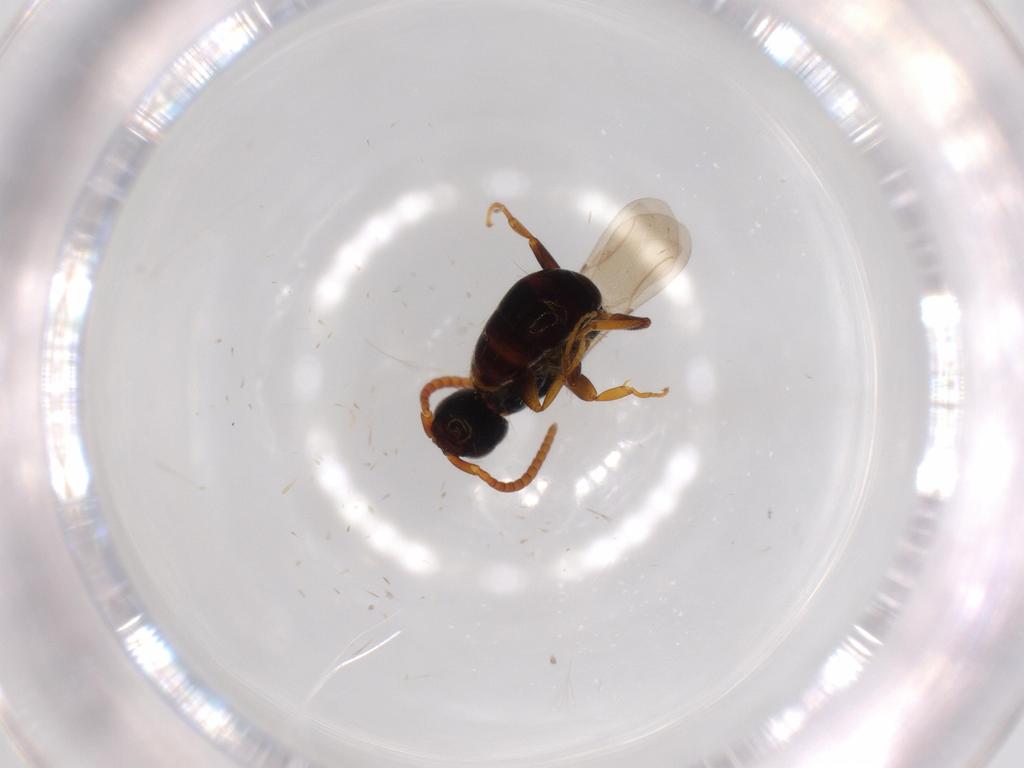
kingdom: Animalia
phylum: Arthropoda
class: Insecta
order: Hymenoptera
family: Bethylidae
